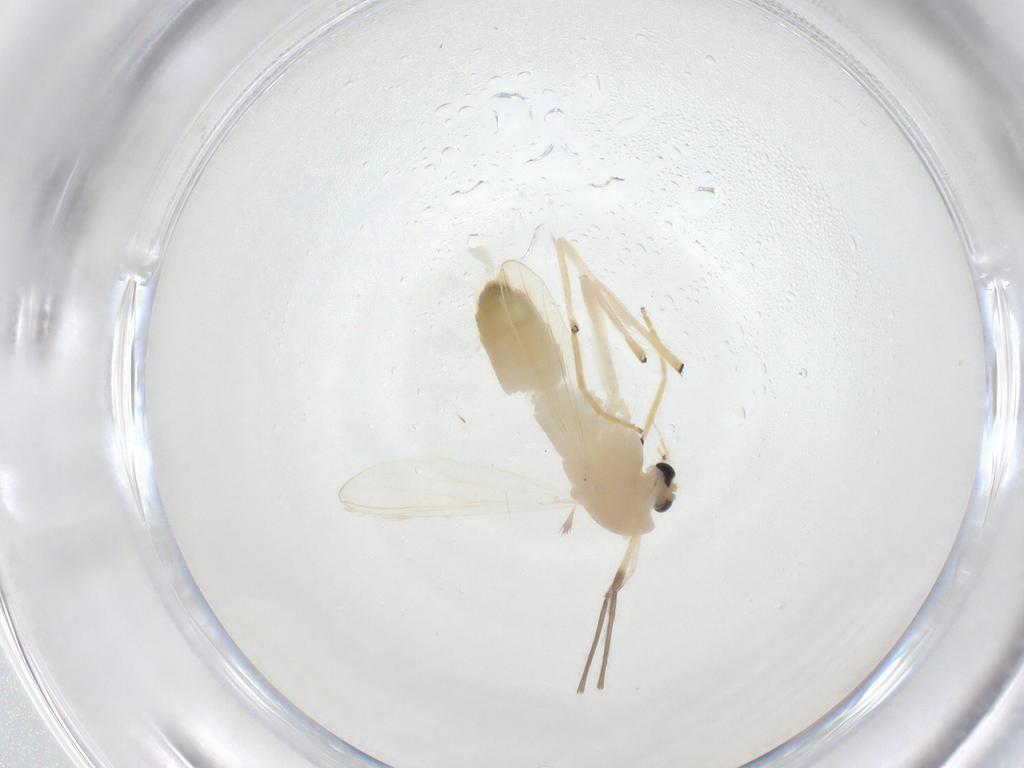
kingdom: Animalia
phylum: Arthropoda
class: Insecta
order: Diptera
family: Chironomidae
